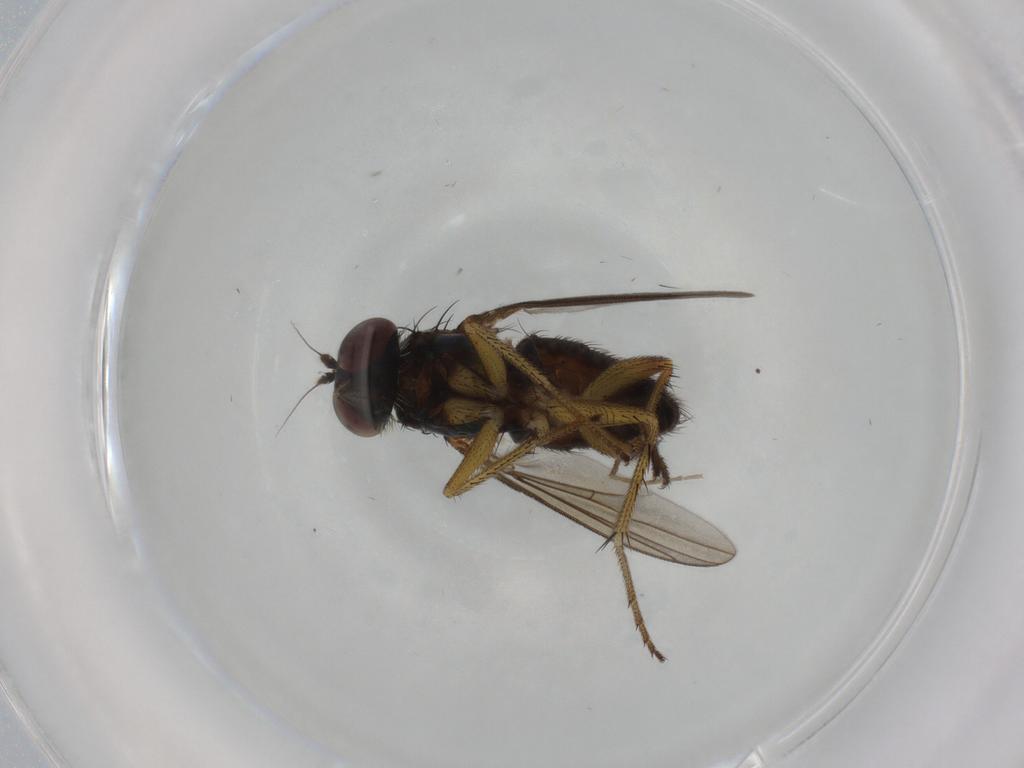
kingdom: Animalia
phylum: Arthropoda
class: Insecta
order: Diptera
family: Dolichopodidae
